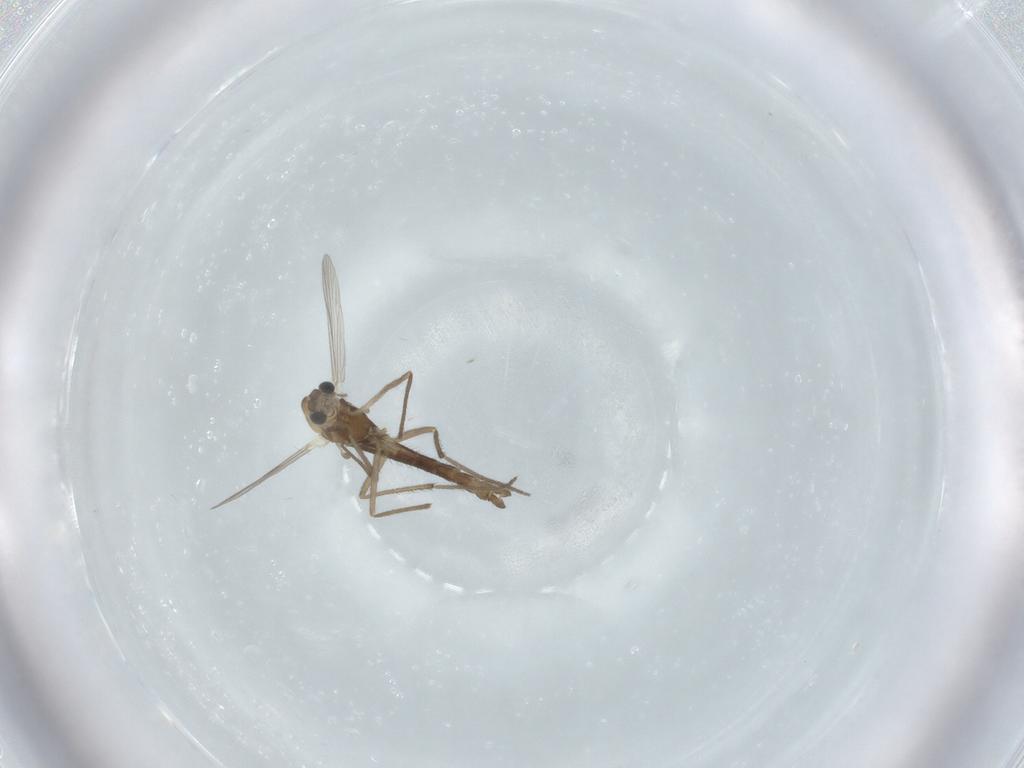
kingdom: Animalia
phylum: Arthropoda
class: Insecta
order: Diptera
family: Chironomidae
